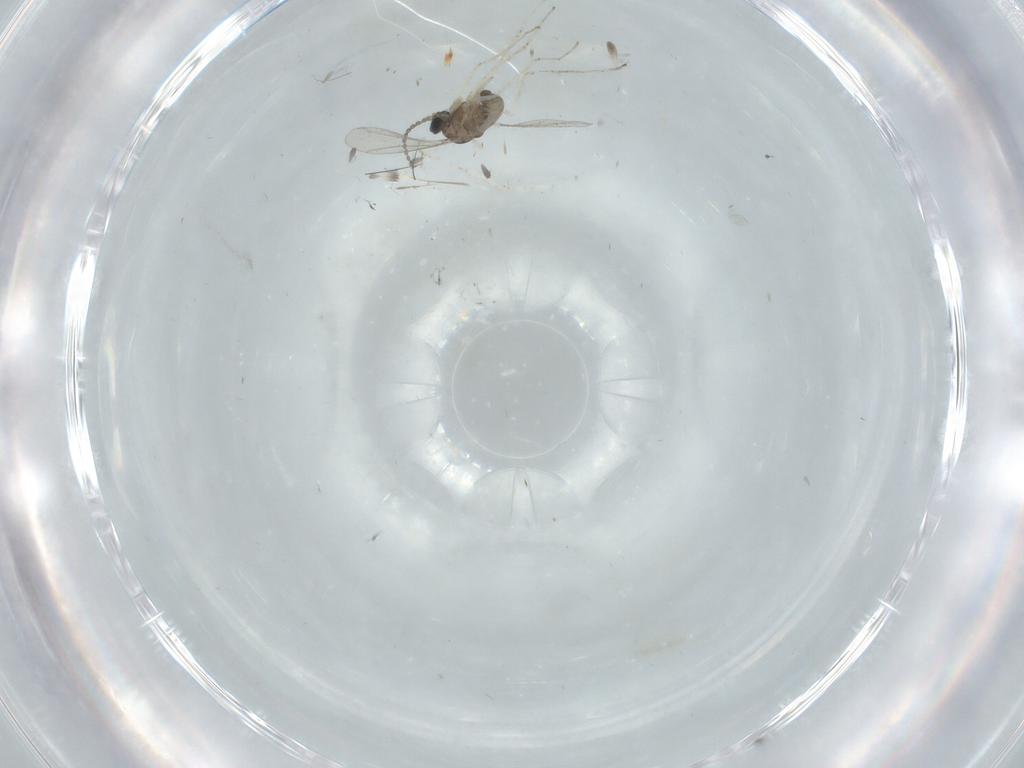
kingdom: Animalia
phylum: Arthropoda
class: Insecta
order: Diptera
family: Cecidomyiidae
